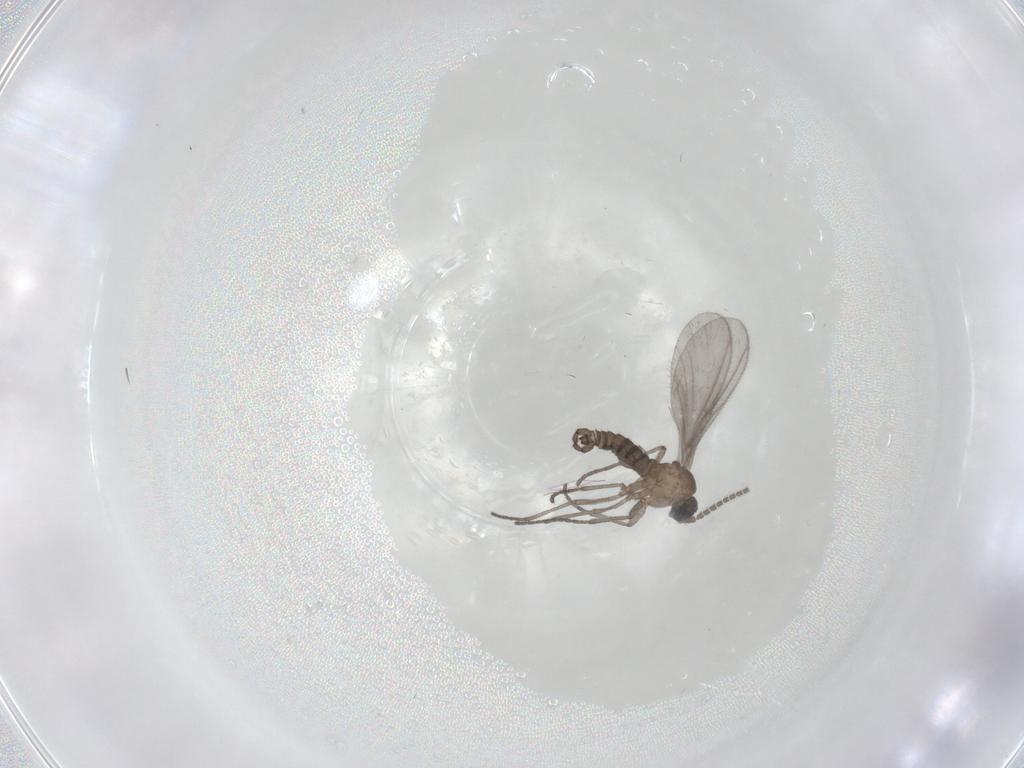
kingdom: Animalia
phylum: Arthropoda
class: Insecta
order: Diptera
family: Sciaridae
